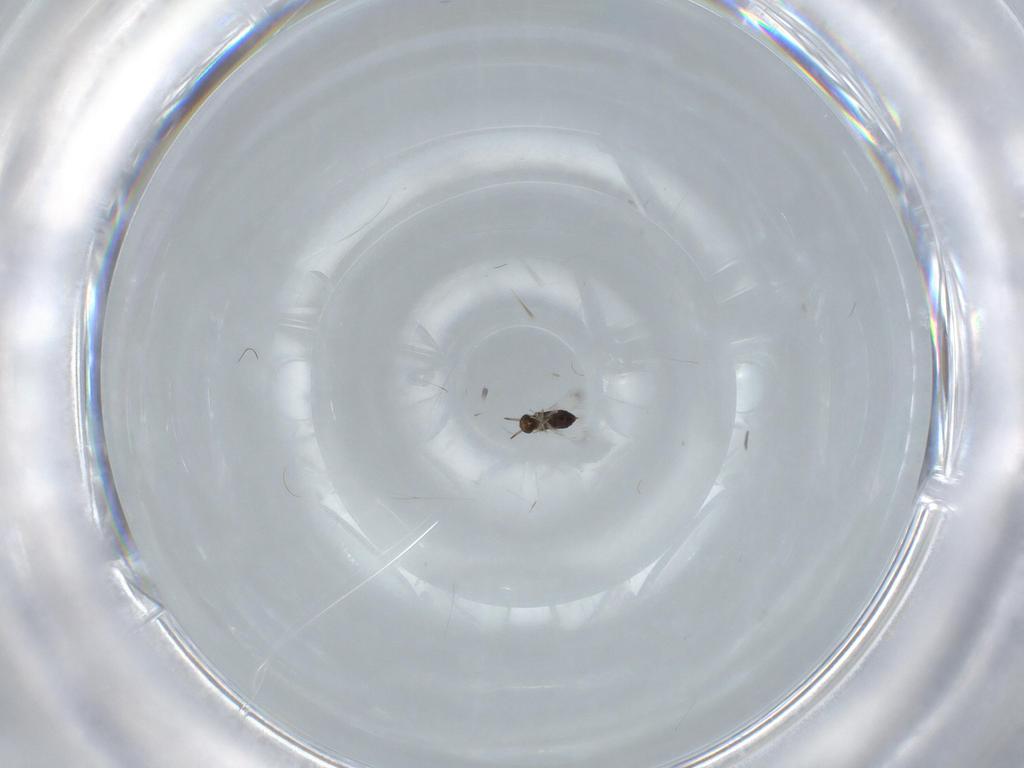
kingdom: Animalia
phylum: Arthropoda
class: Insecta
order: Hymenoptera
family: Signiphoridae
